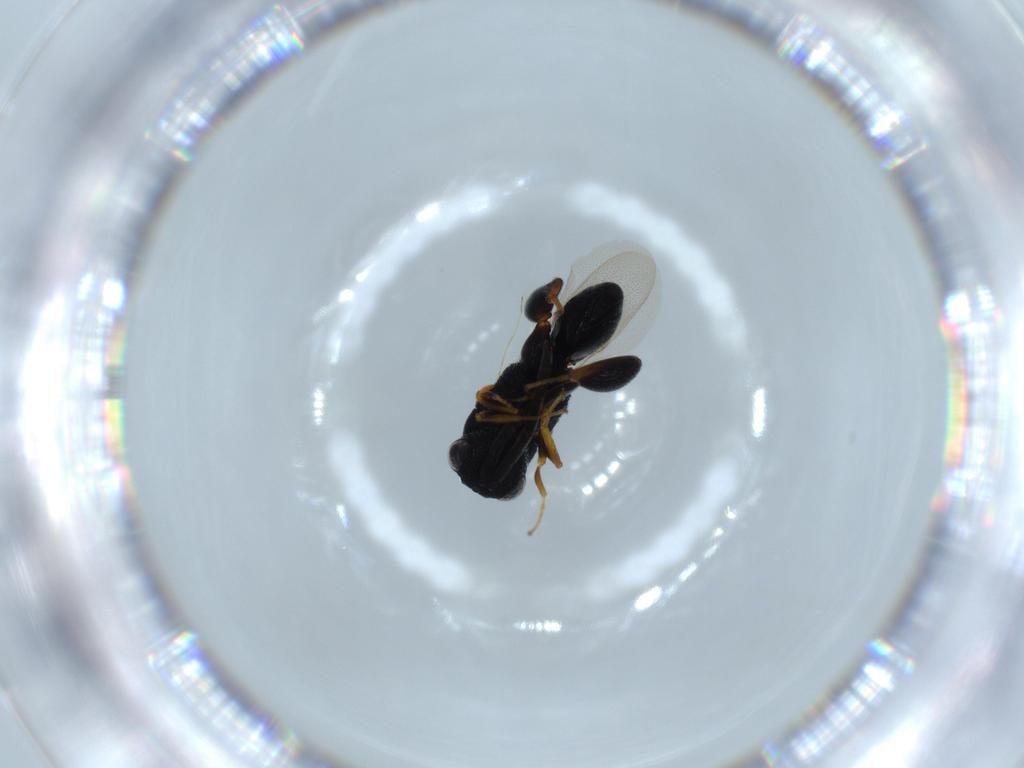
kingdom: Animalia
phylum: Arthropoda
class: Insecta
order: Hymenoptera
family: Chalcididae
